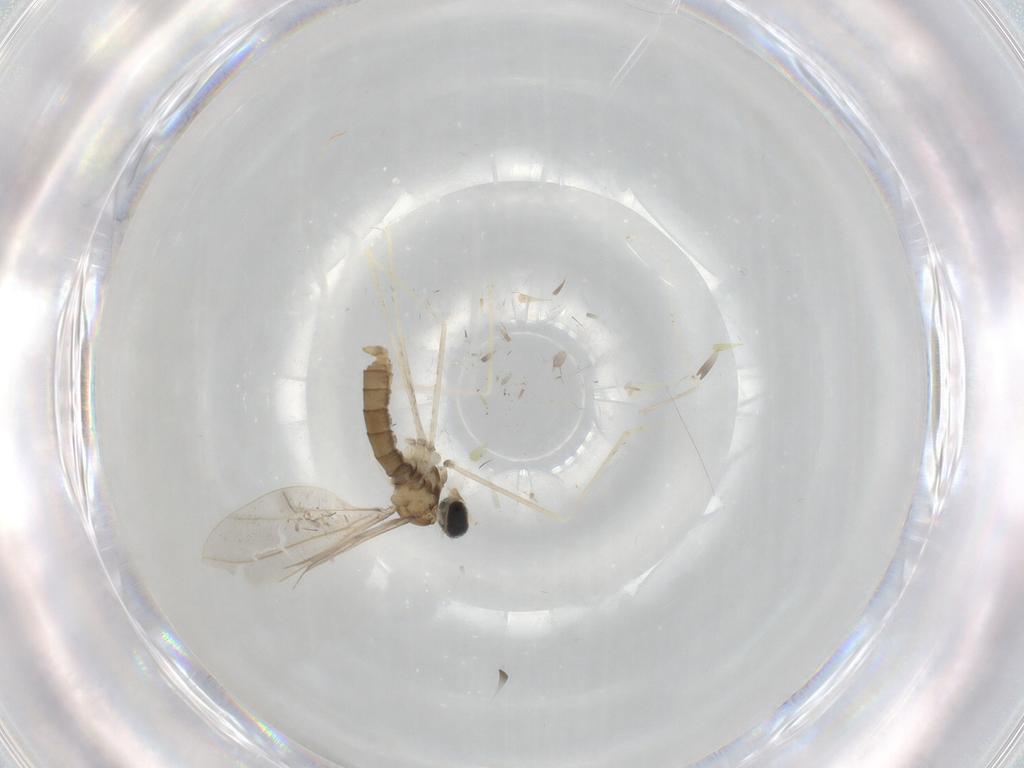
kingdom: Animalia
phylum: Arthropoda
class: Insecta
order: Diptera
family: Cecidomyiidae
